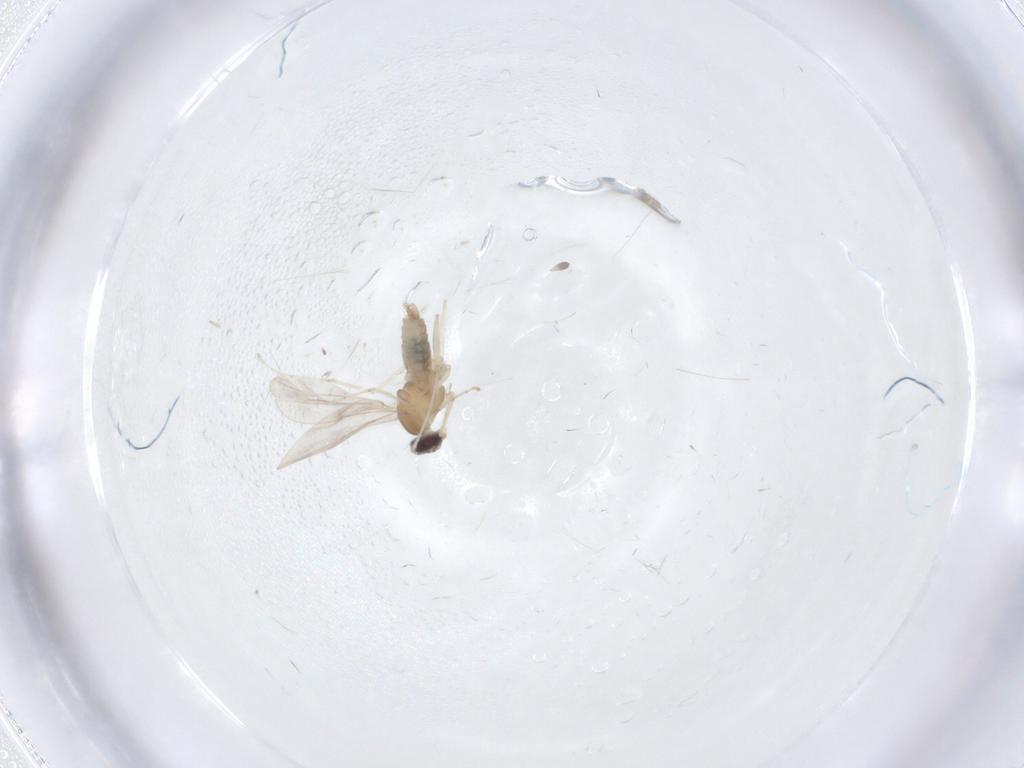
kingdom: Animalia
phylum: Arthropoda
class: Insecta
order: Diptera
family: Cecidomyiidae
